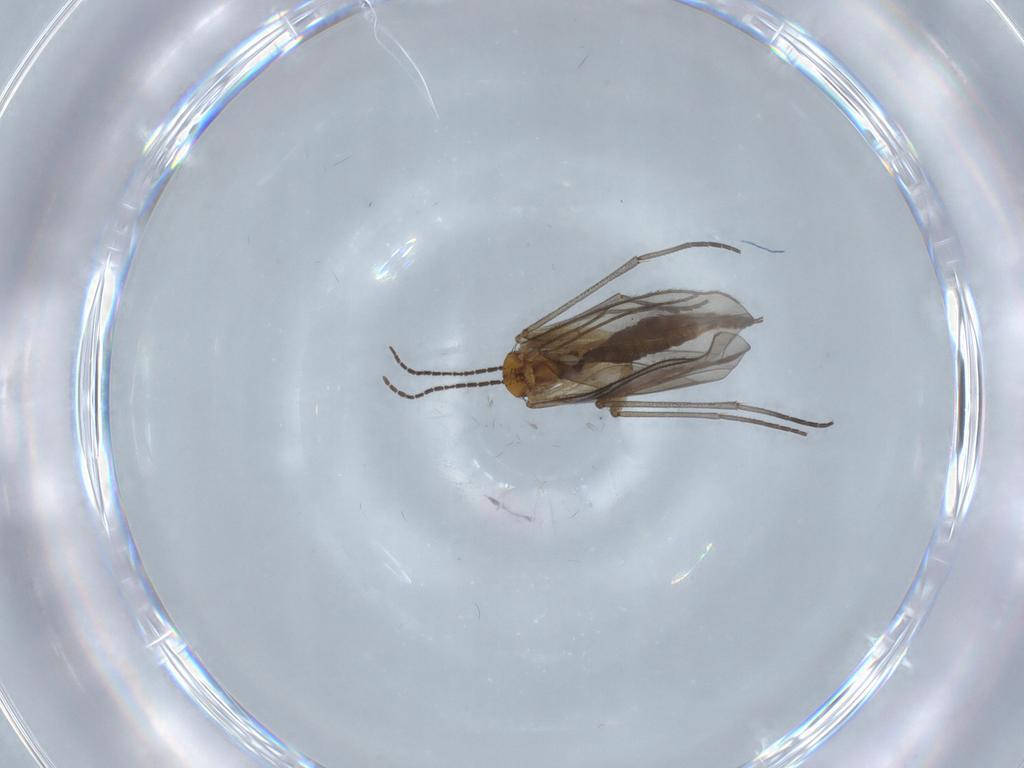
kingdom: Animalia
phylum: Arthropoda
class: Insecta
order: Diptera
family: Sciaridae
